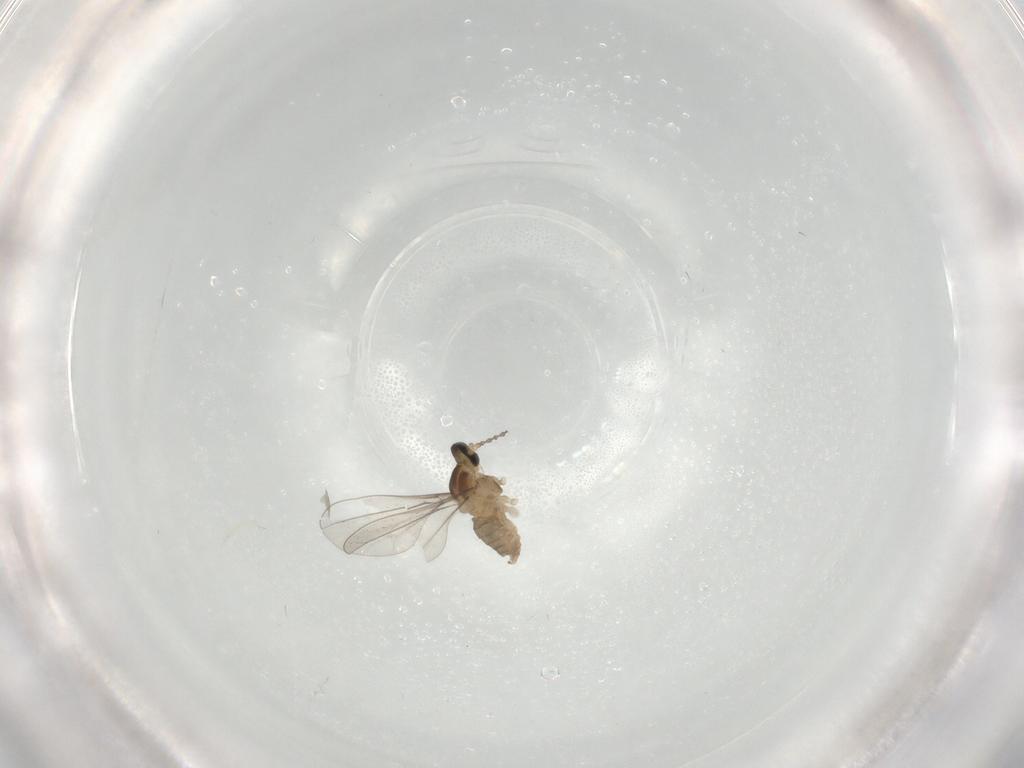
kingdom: Animalia
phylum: Arthropoda
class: Insecta
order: Diptera
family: Cecidomyiidae
